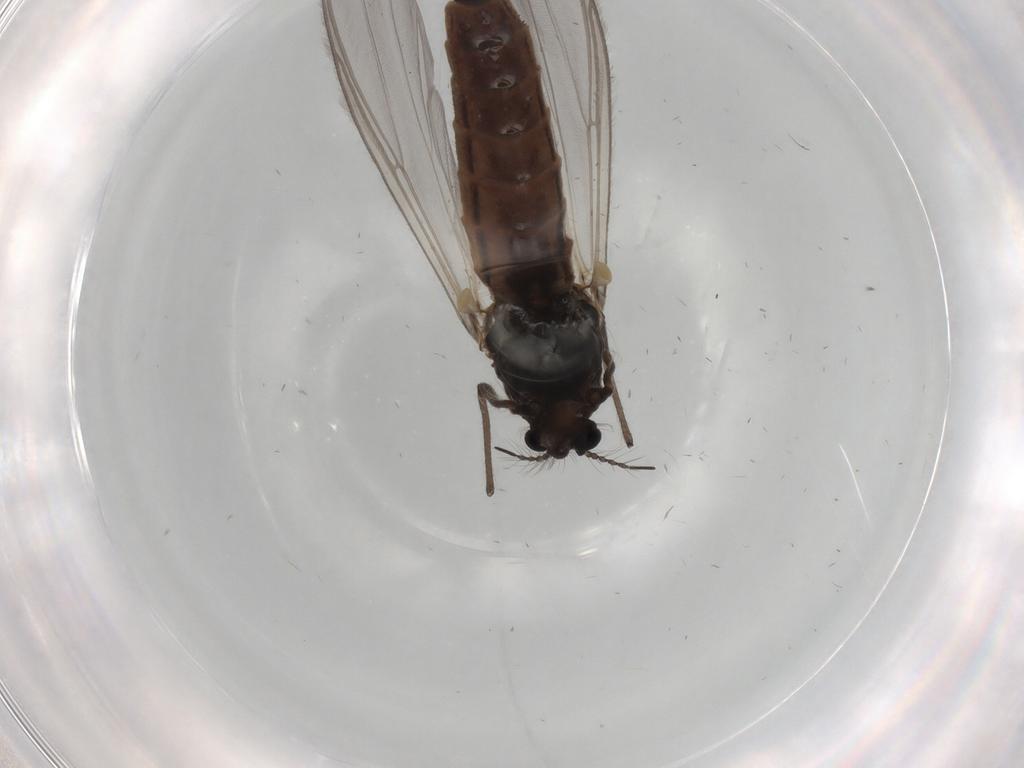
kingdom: Animalia
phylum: Arthropoda
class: Insecta
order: Diptera
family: Chironomidae
